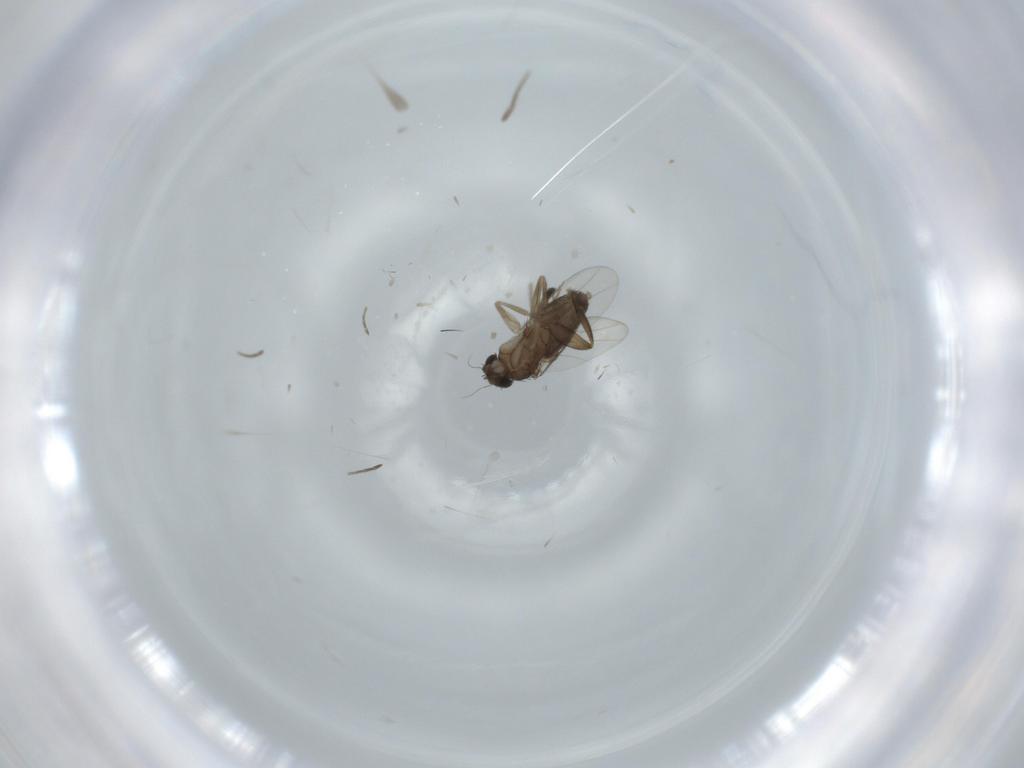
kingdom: Animalia
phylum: Arthropoda
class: Insecta
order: Diptera
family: Phoridae
